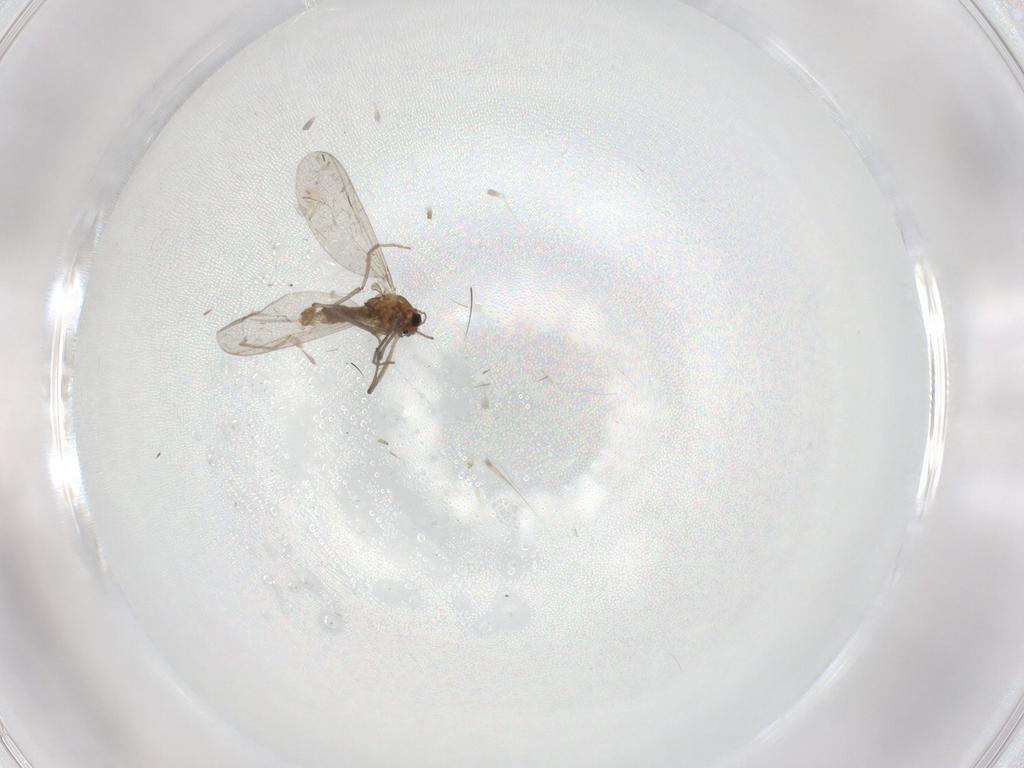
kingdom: Animalia
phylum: Arthropoda
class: Insecta
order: Diptera
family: Chironomidae
